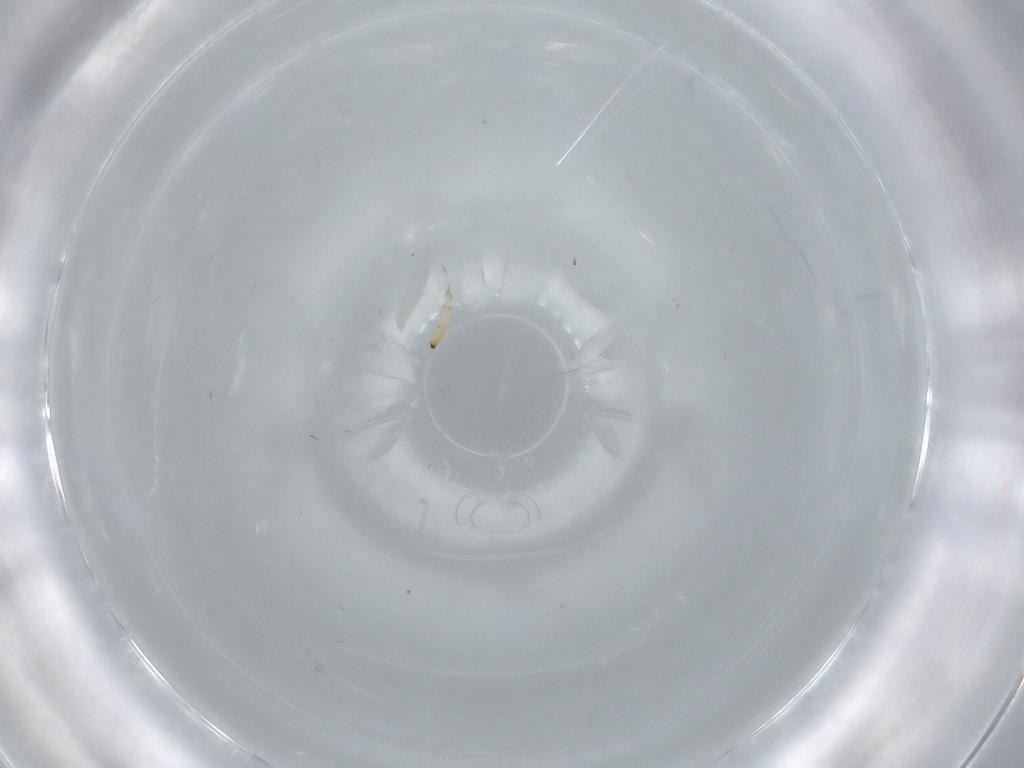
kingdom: Animalia
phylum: Arthropoda
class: Insecta
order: Hemiptera
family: Issidae
